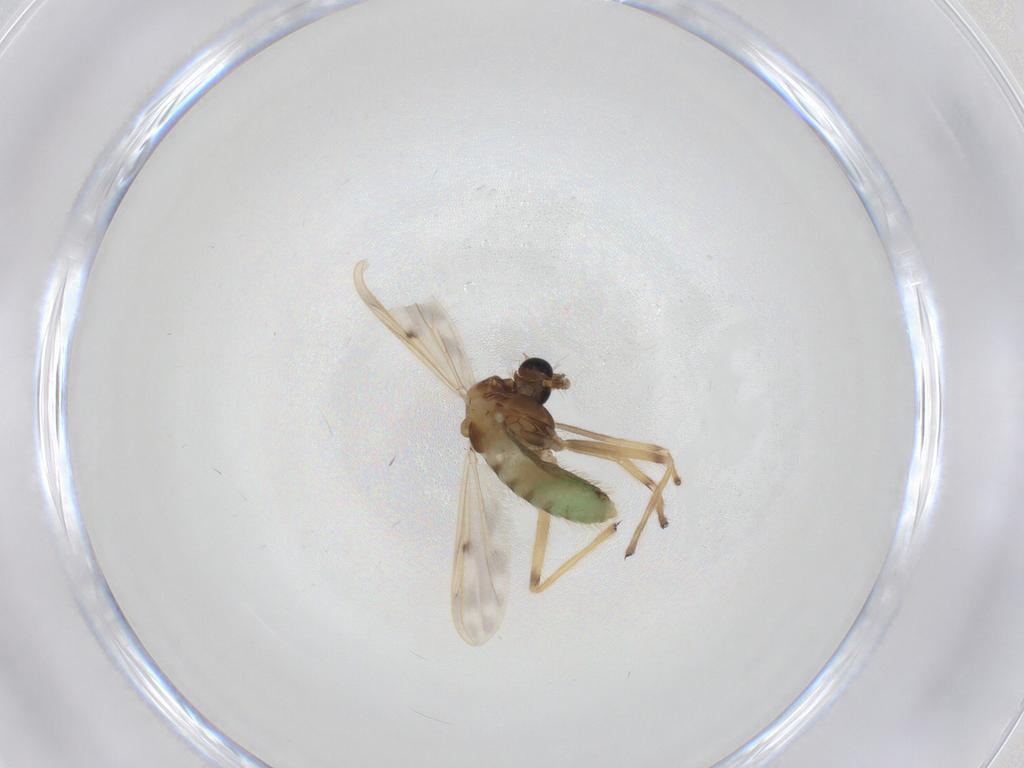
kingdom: Animalia
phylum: Arthropoda
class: Insecta
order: Diptera
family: Chironomidae
